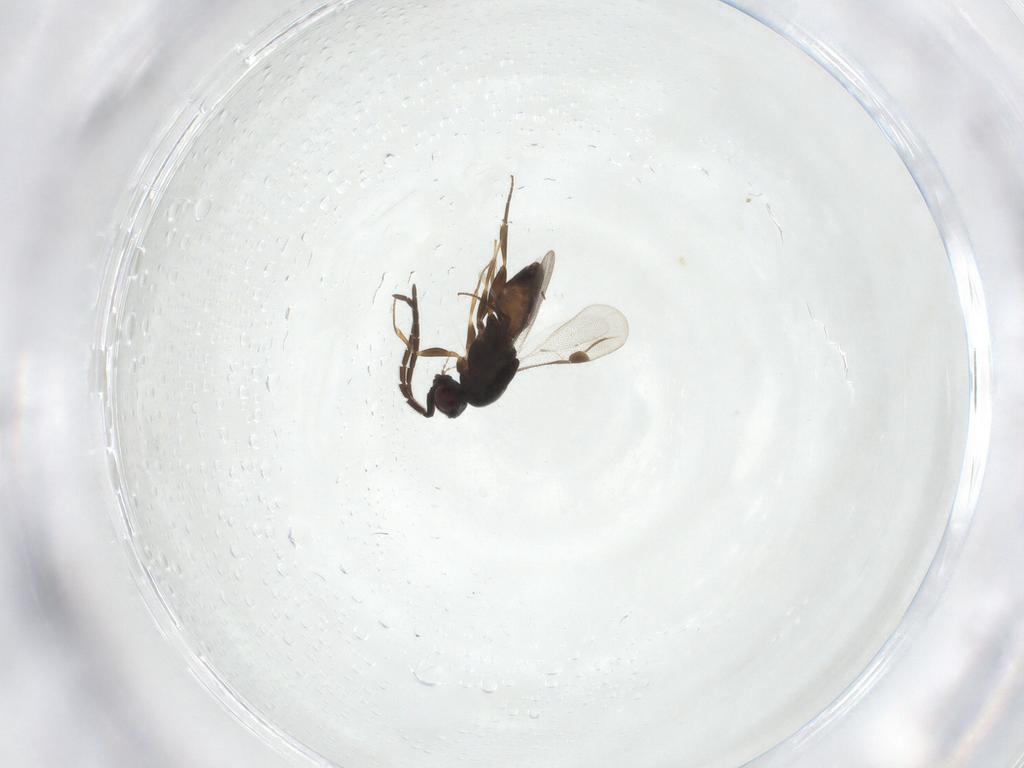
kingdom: Animalia
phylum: Arthropoda
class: Insecta
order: Hymenoptera
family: Megaspilidae
